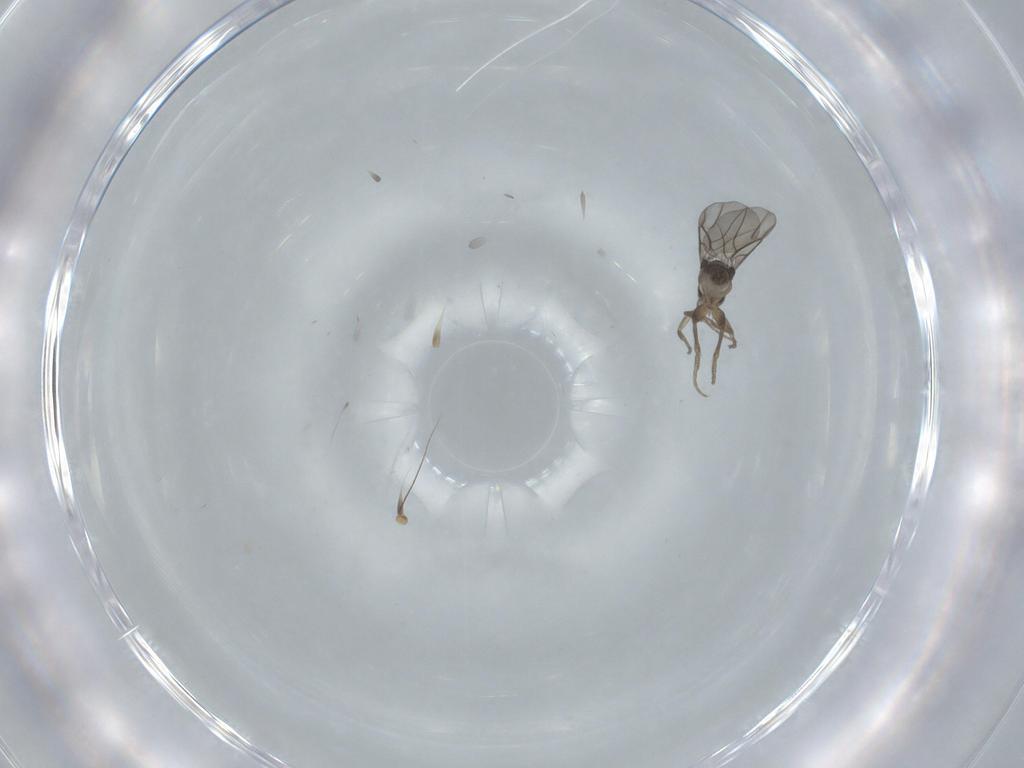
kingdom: Animalia
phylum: Arthropoda
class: Insecta
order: Diptera
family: Phoridae
